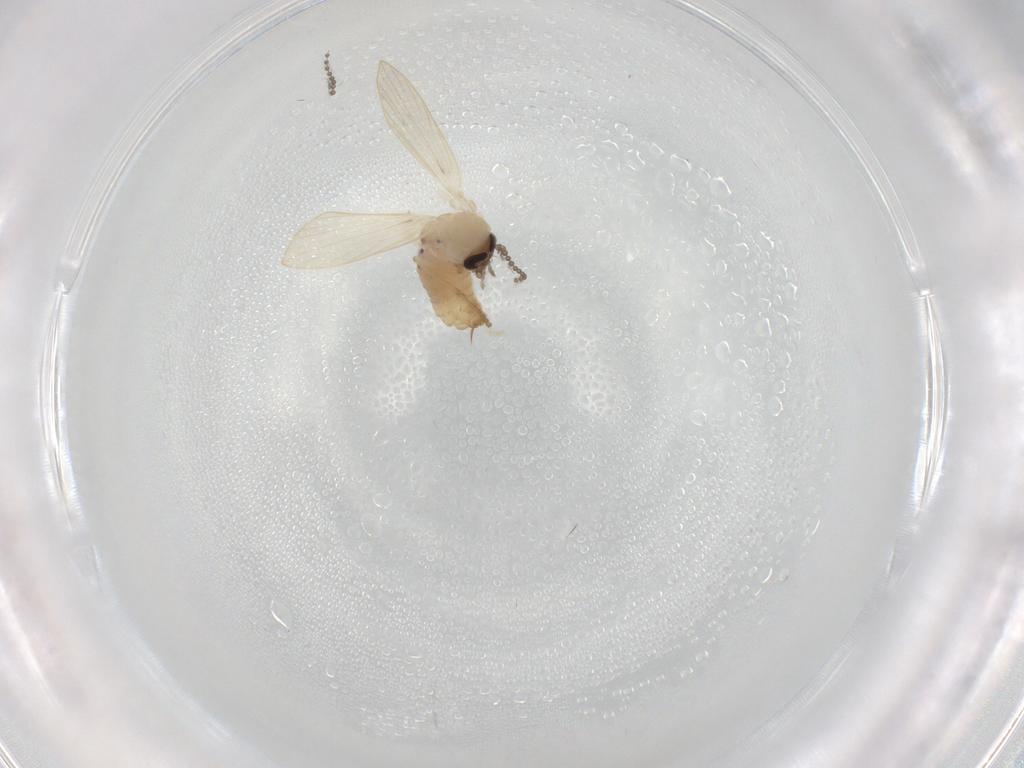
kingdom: Animalia
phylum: Arthropoda
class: Insecta
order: Diptera
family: Psychodidae
